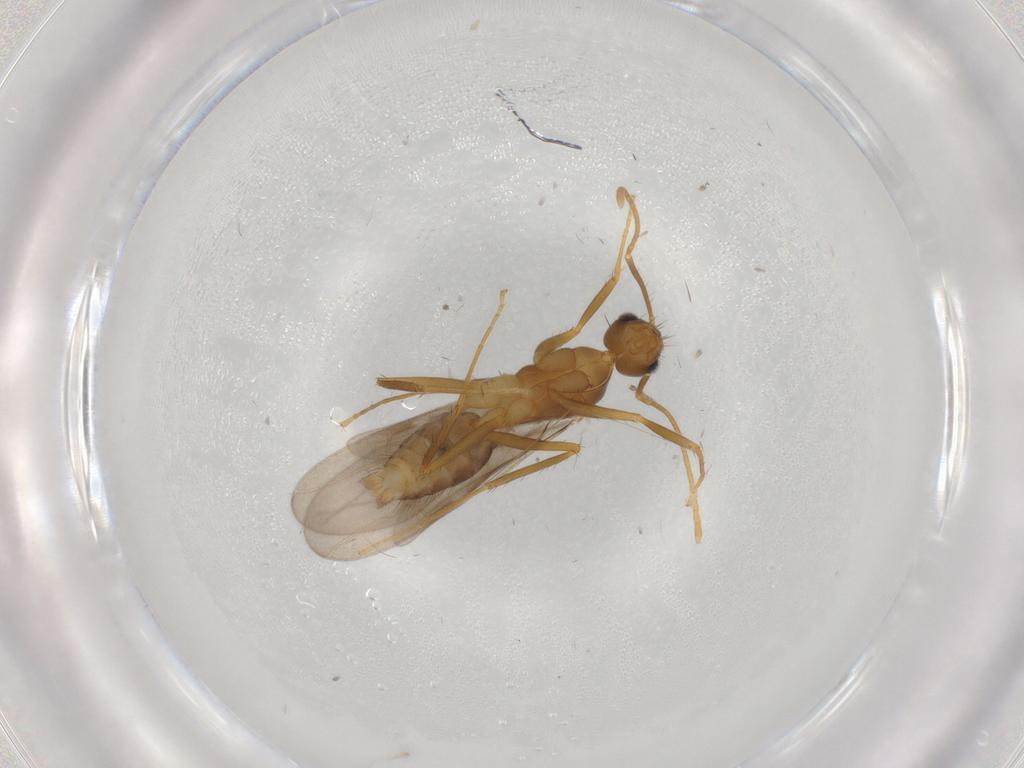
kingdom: Animalia
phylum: Arthropoda
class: Insecta
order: Hymenoptera
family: Formicidae
